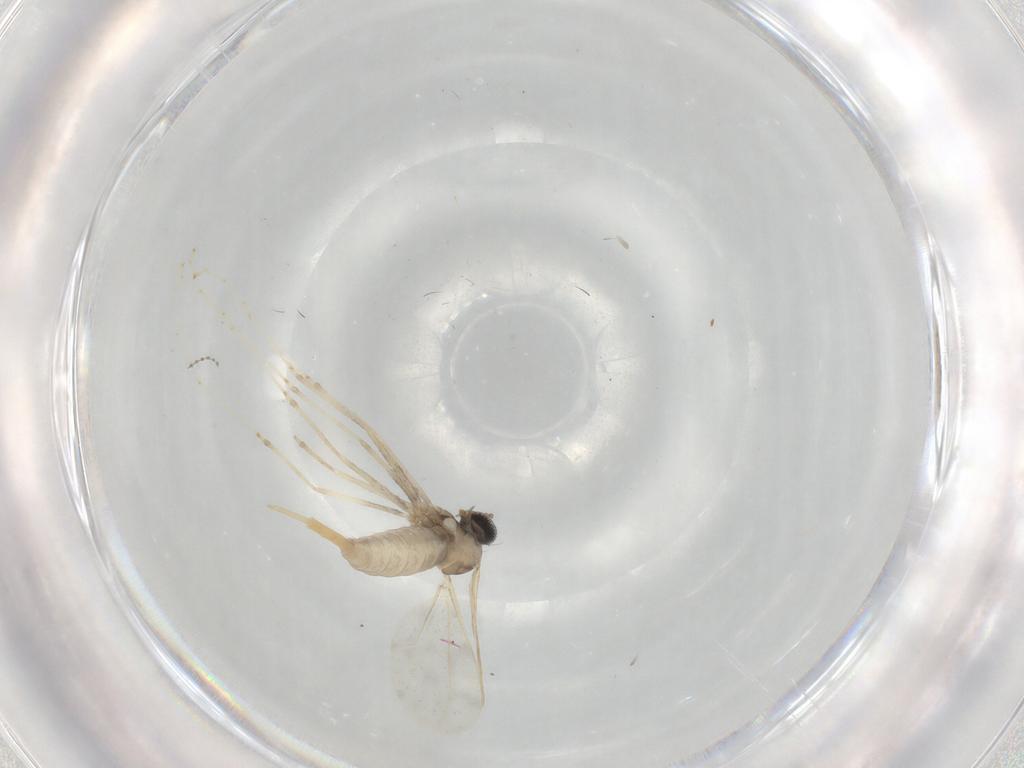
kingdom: Animalia
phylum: Arthropoda
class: Insecta
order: Diptera
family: Cecidomyiidae
